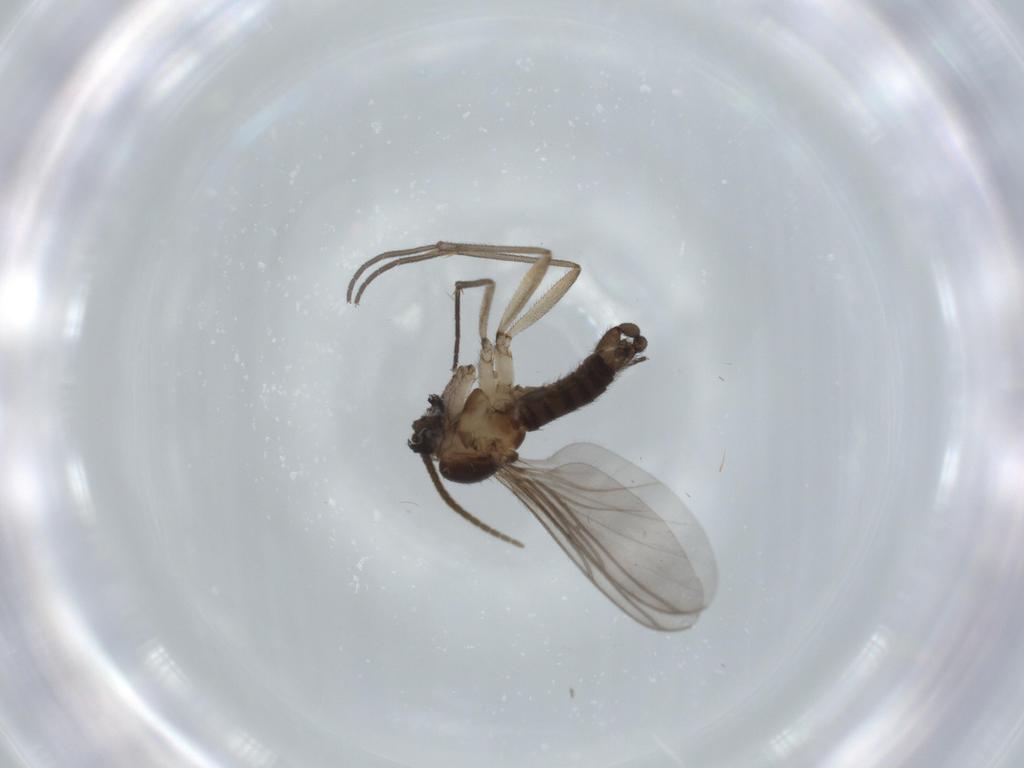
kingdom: Animalia
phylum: Arthropoda
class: Insecta
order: Diptera
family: Sciaridae
